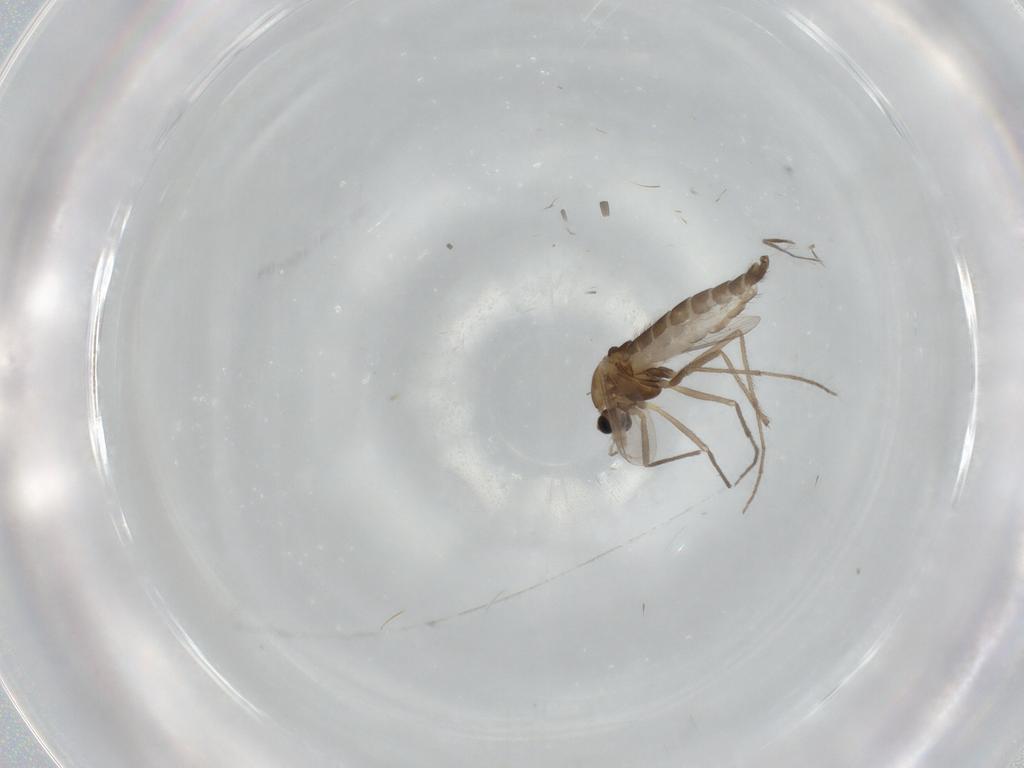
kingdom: Animalia
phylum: Arthropoda
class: Insecta
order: Diptera
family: Chironomidae
